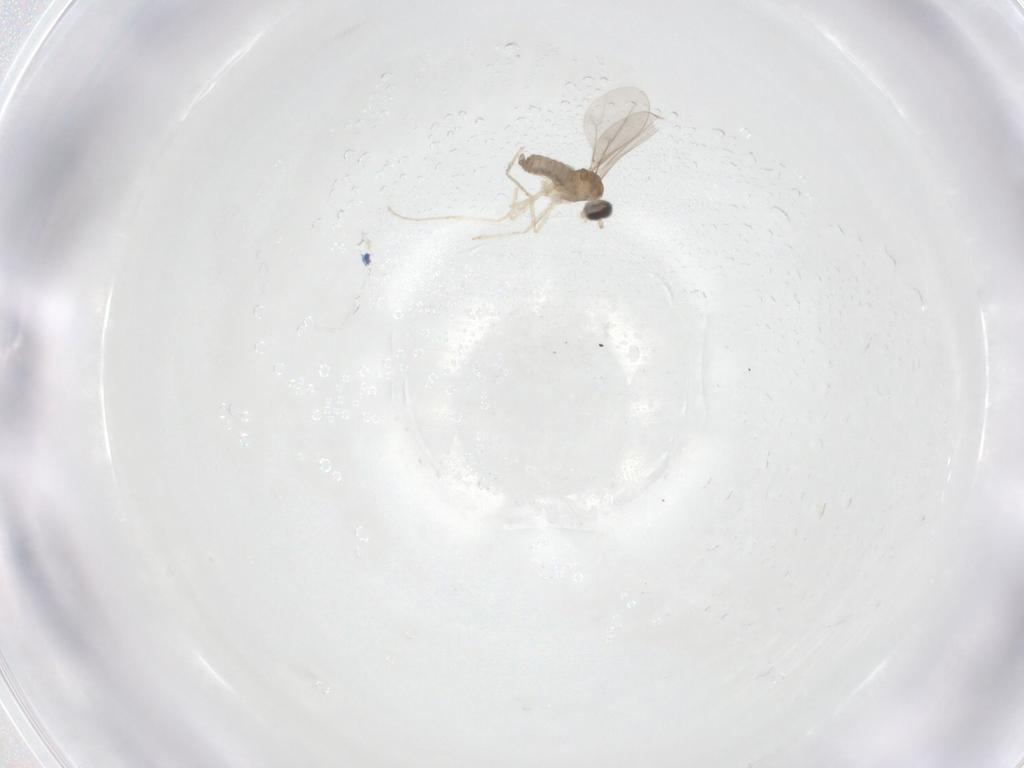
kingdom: Animalia
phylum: Arthropoda
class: Insecta
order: Diptera
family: Cecidomyiidae
